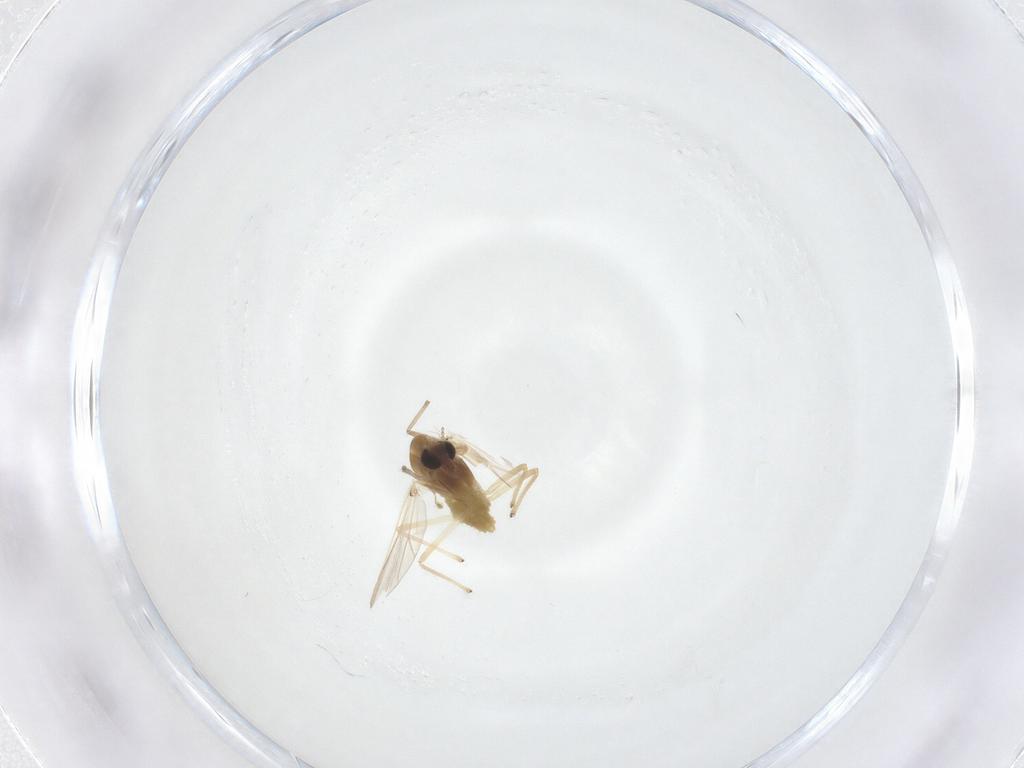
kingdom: Animalia
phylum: Arthropoda
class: Insecta
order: Diptera
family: Chironomidae
